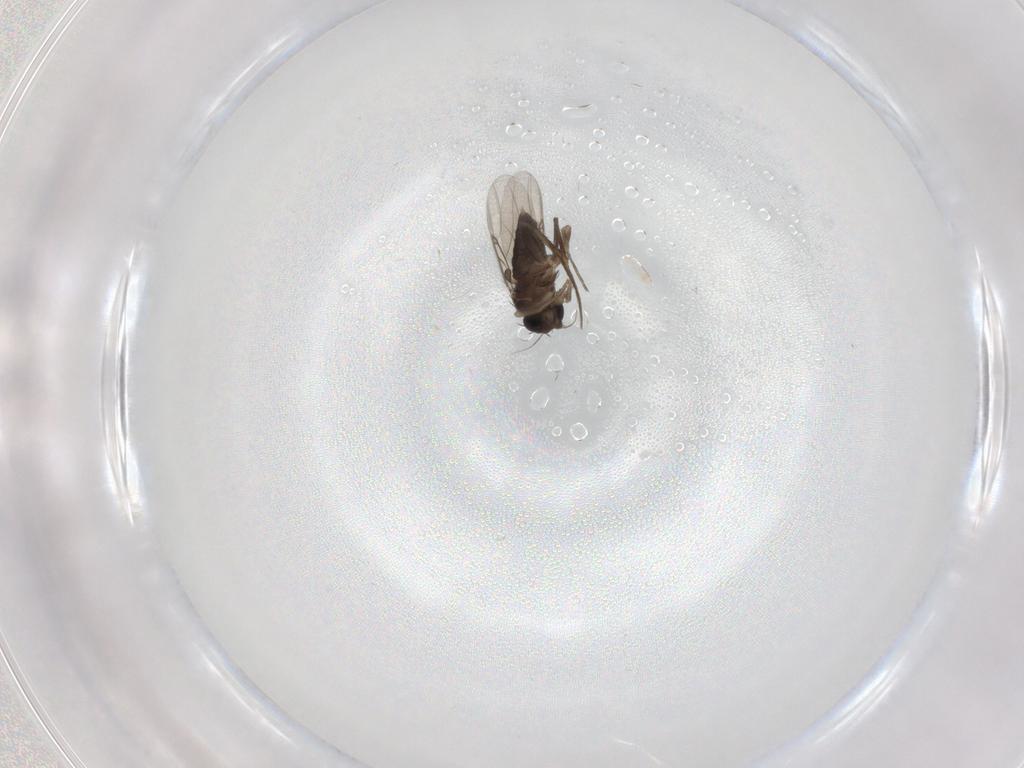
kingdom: Animalia
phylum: Arthropoda
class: Insecta
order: Diptera
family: Phoridae
